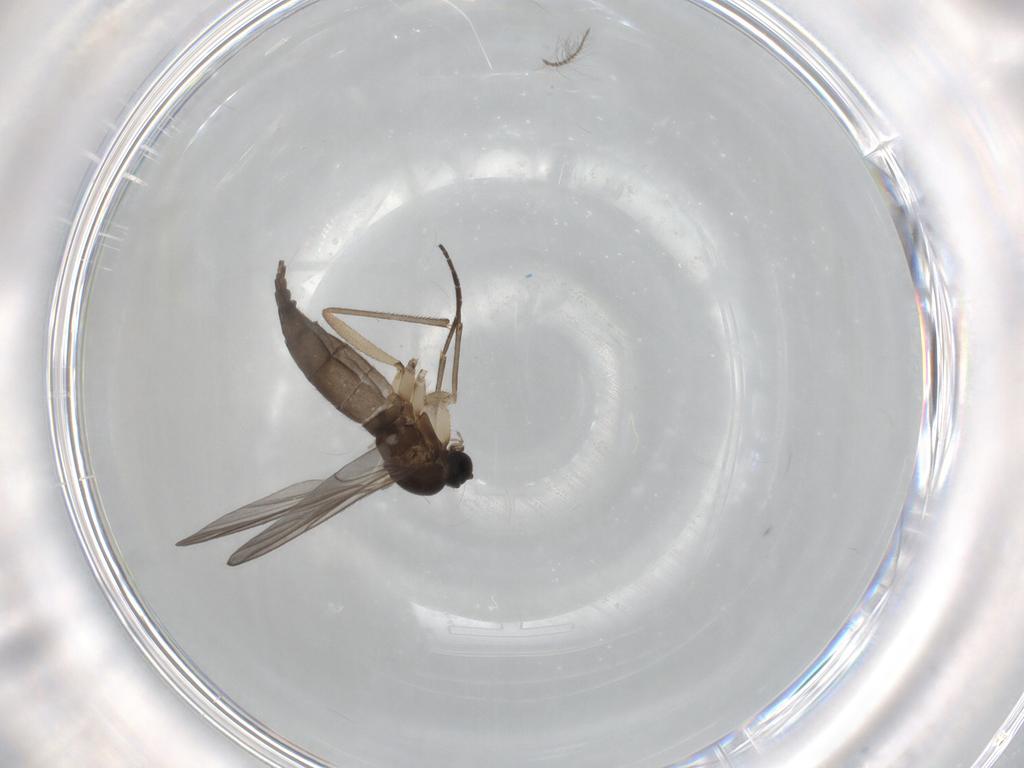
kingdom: Animalia
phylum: Arthropoda
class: Insecta
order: Diptera
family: Sciaridae
